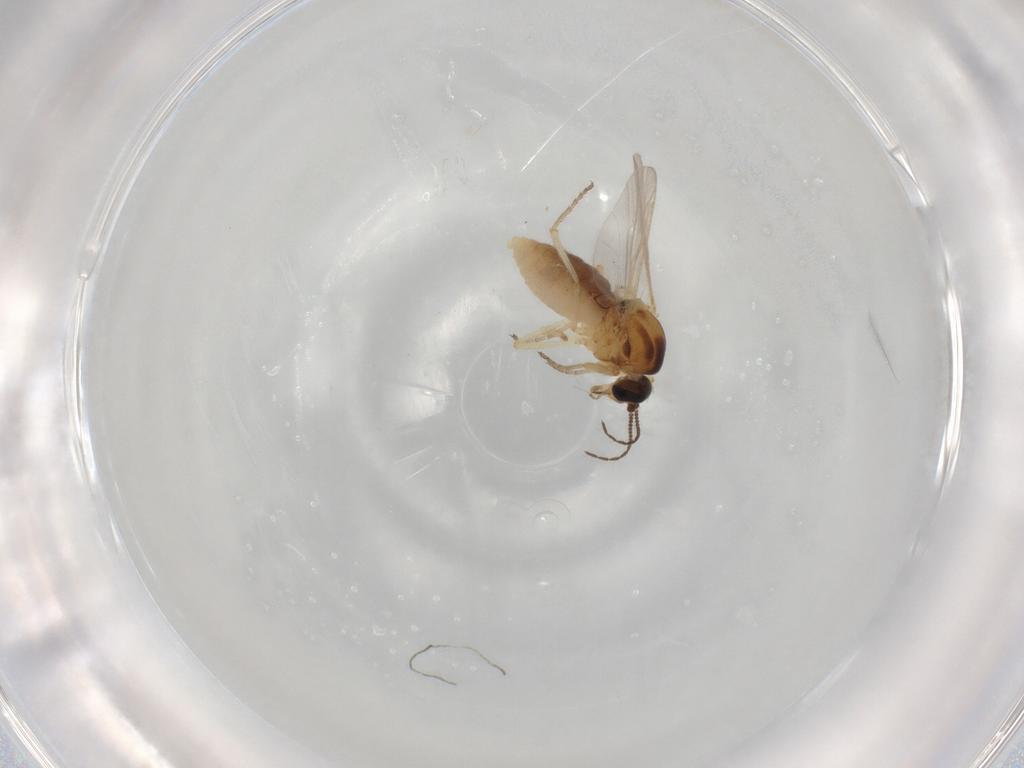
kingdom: Animalia
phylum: Arthropoda
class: Insecta
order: Diptera
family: Ceratopogonidae
